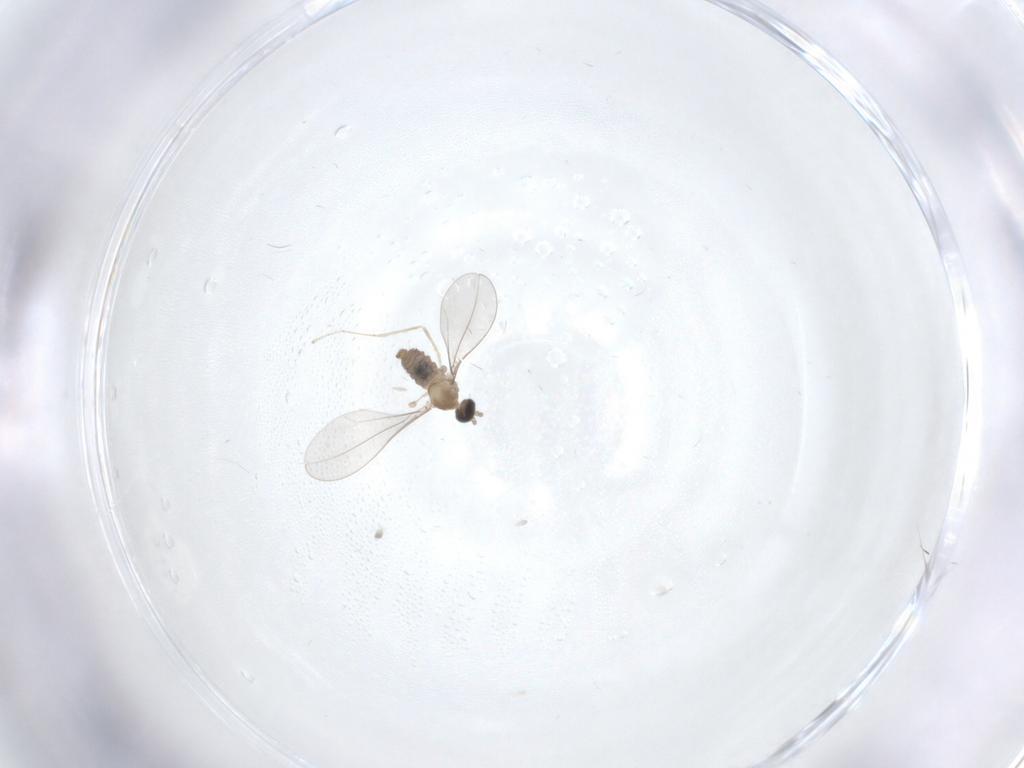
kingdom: Animalia
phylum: Arthropoda
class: Insecta
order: Diptera
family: Cecidomyiidae
